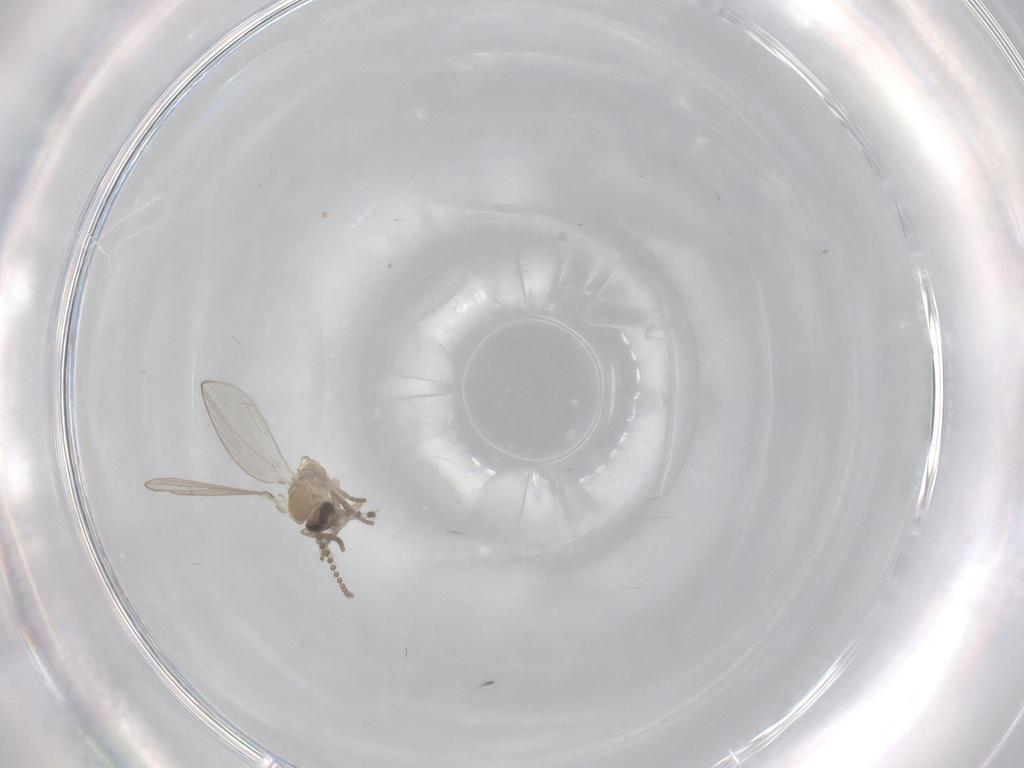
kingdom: Animalia
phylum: Arthropoda
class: Insecta
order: Diptera
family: Psychodidae
